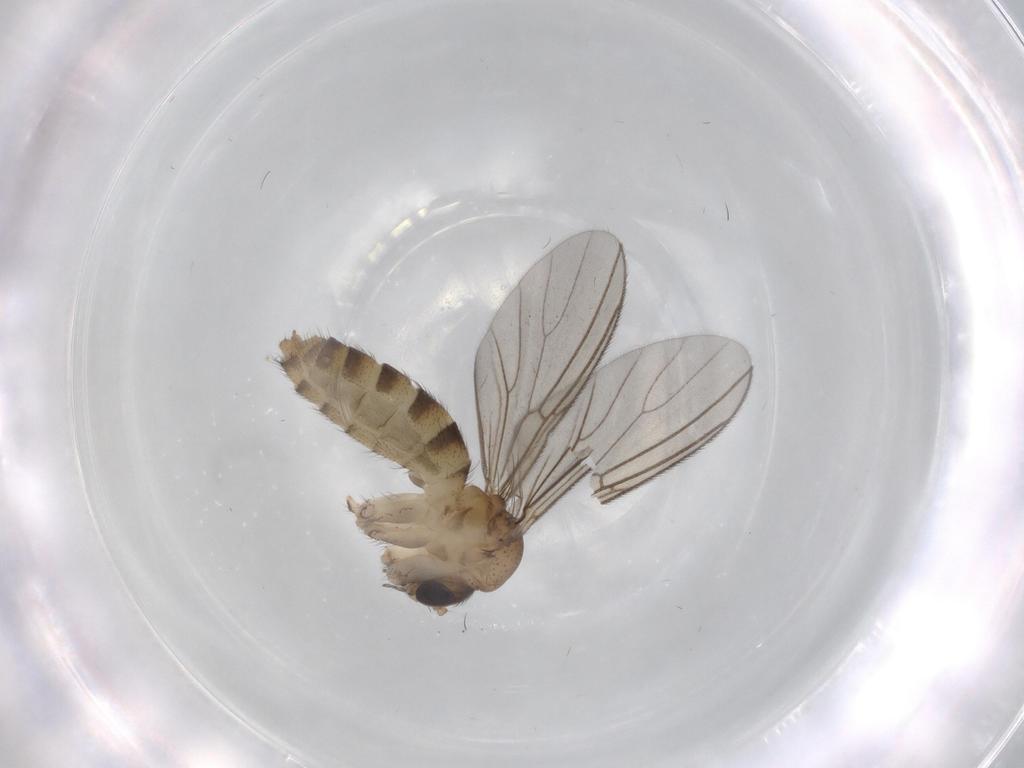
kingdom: Animalia
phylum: Arthropoda
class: Insecta
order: Diptera
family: Mycetophilidae
